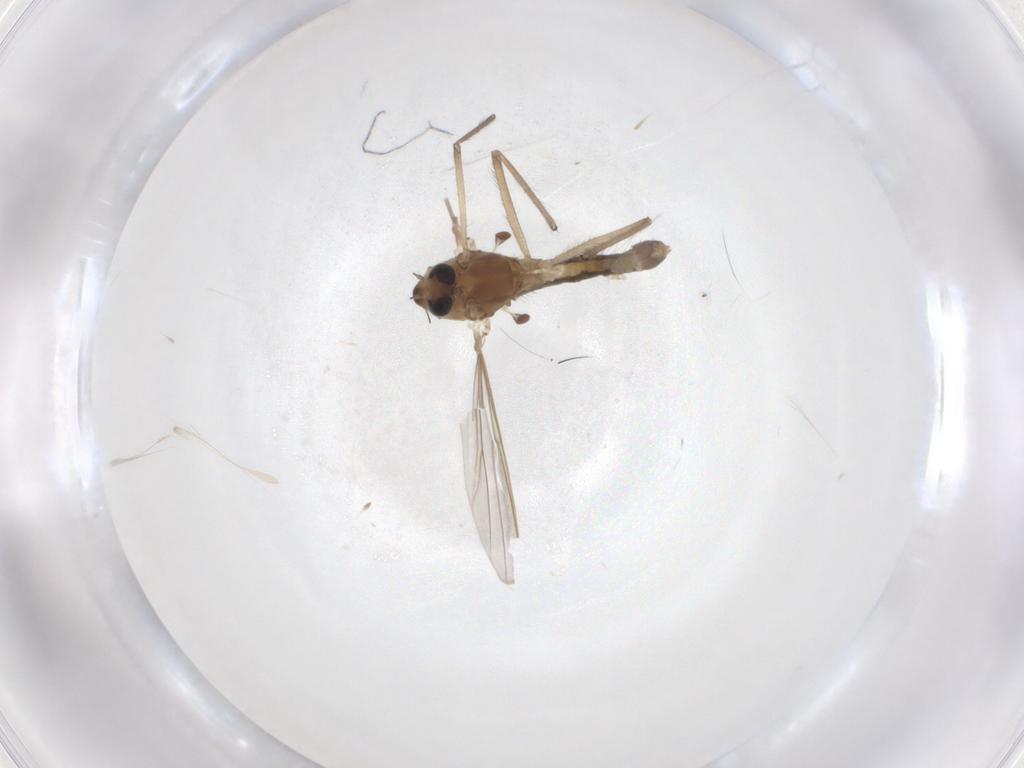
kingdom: Animalia
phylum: Arthropoda
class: Insecta
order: Diptera
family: Chironomidae
